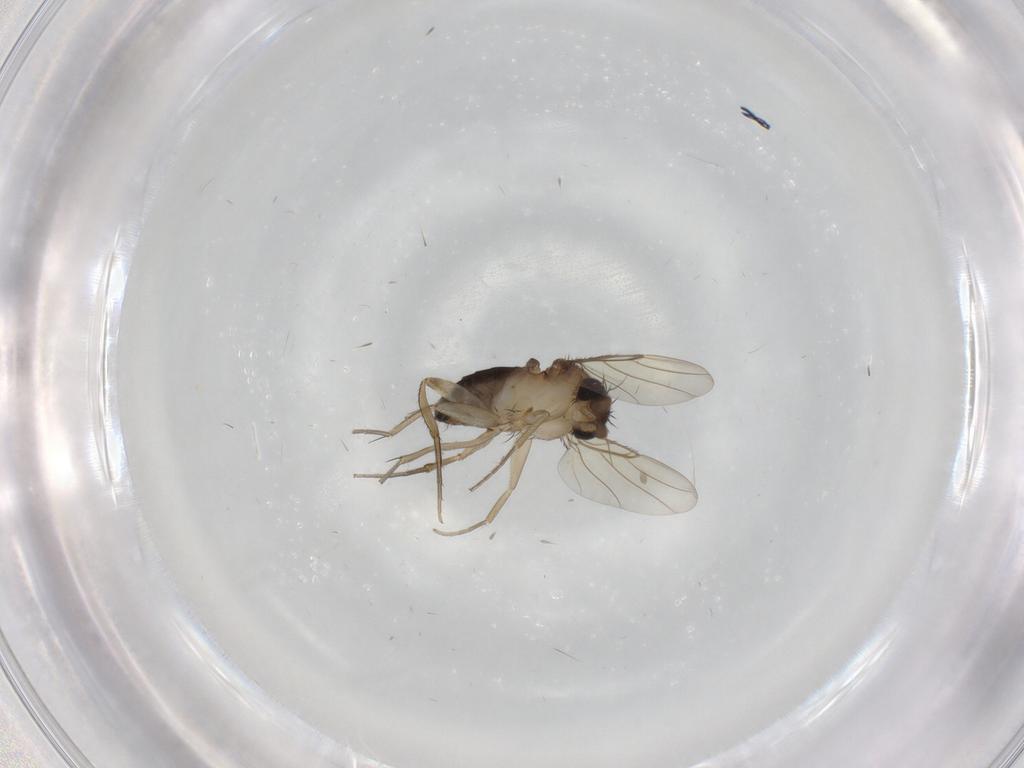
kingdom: Animalia
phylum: Arthropoda
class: Insecta
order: Diptera
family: Phoridae
